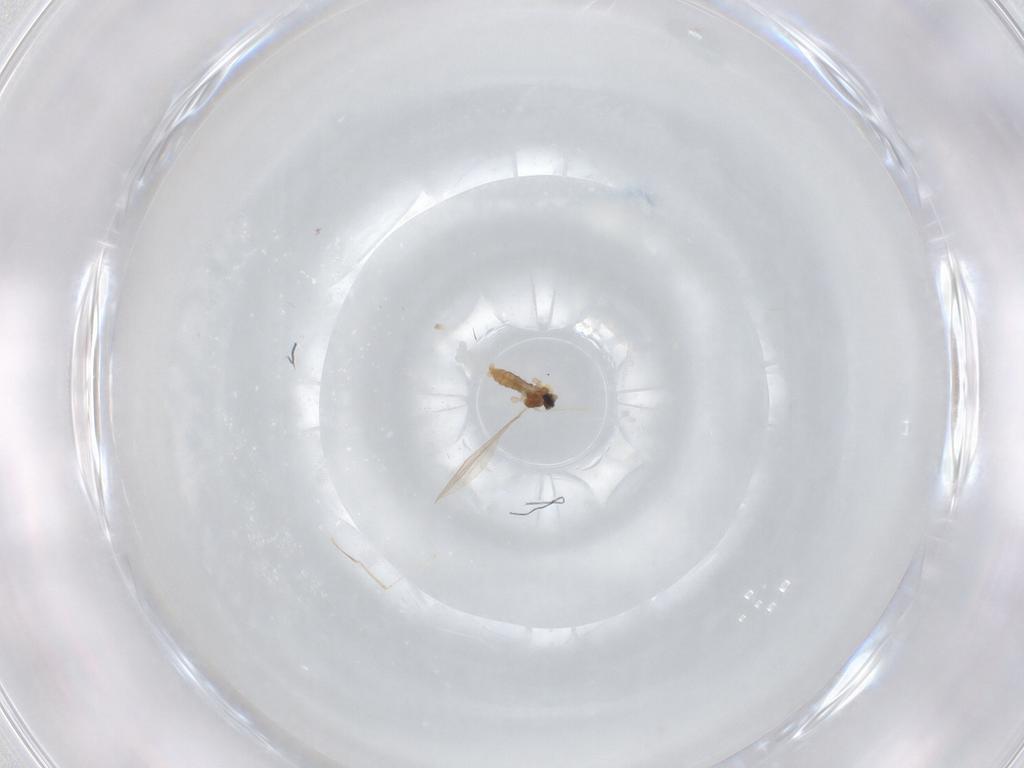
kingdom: Animalia
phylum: Arthropoda
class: Insecta
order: Diptera
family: Cecidomyiidae
